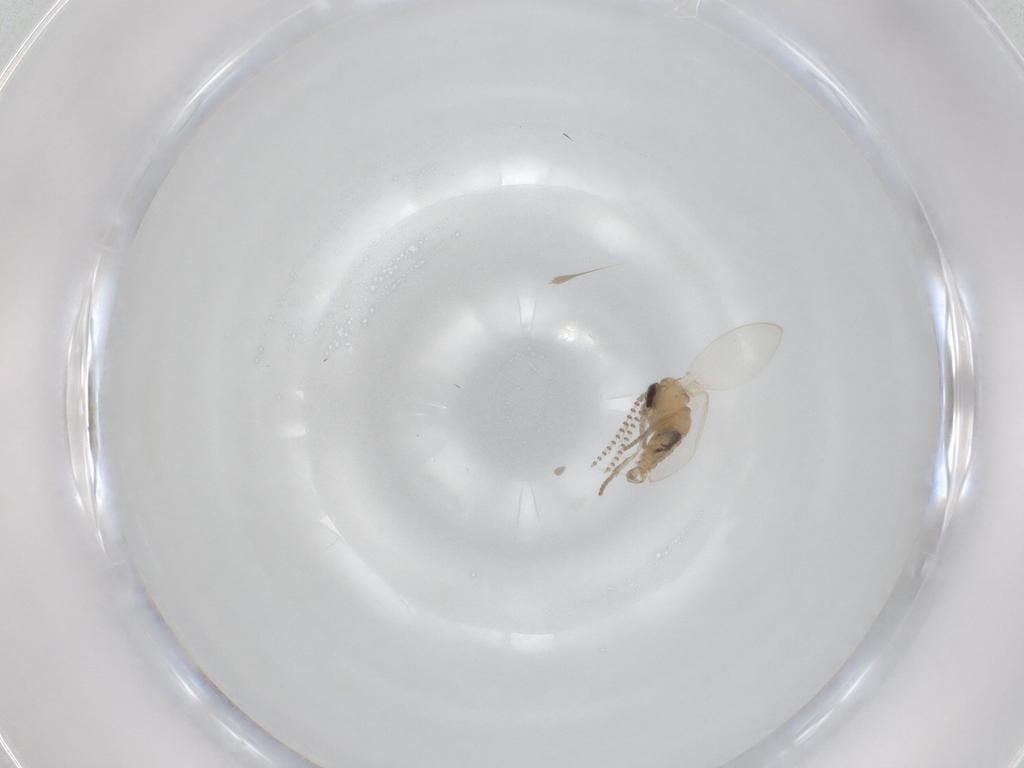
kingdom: Animalia
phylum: Arthropoda
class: Insecta
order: Diptera
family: Psychodidae
